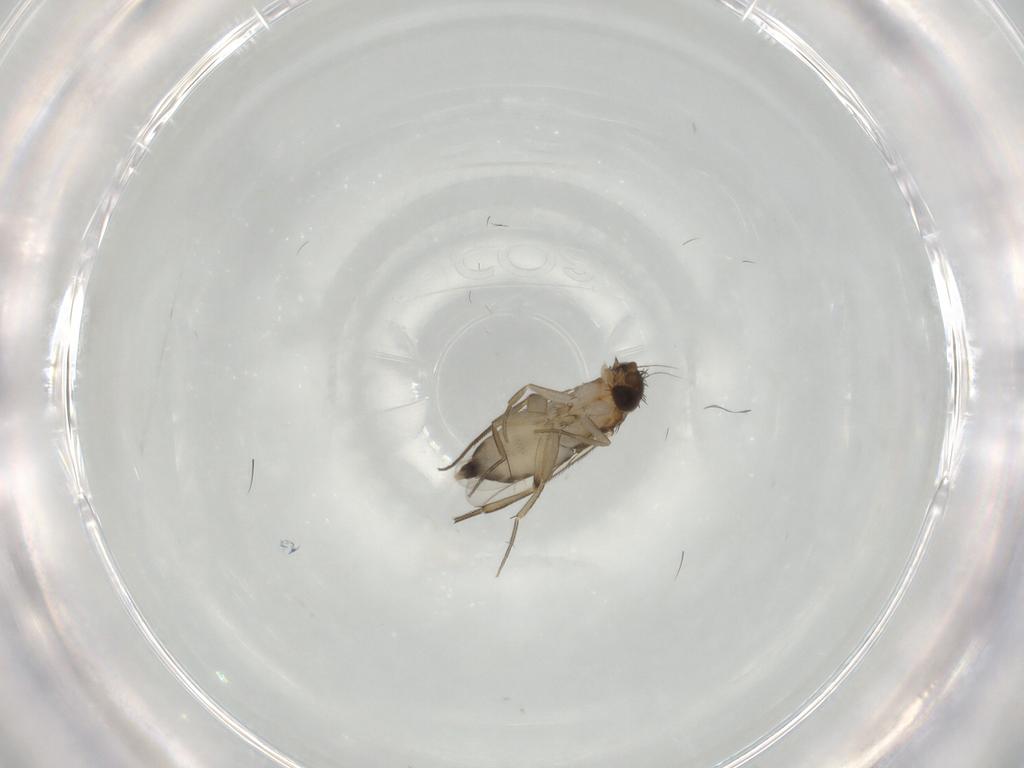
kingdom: Animalia
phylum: Arthropoda
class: Insecta
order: Diptera
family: Phoridae
